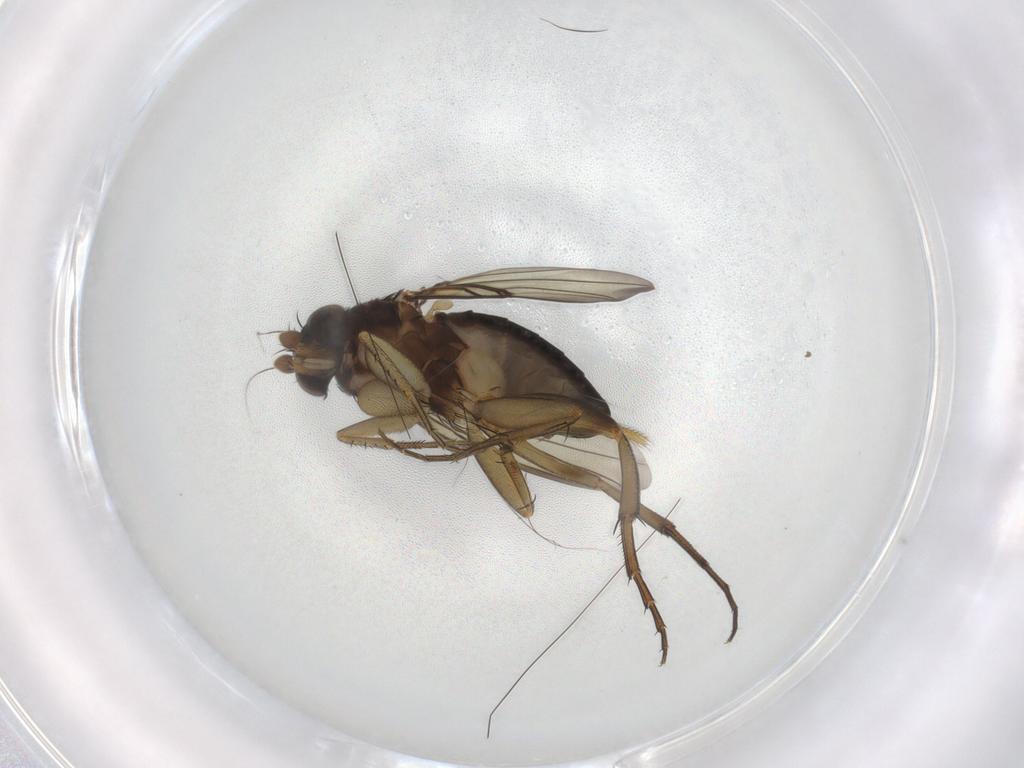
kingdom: Animalia
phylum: Arthropoda
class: Insecta
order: Diptera
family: Phoridae
